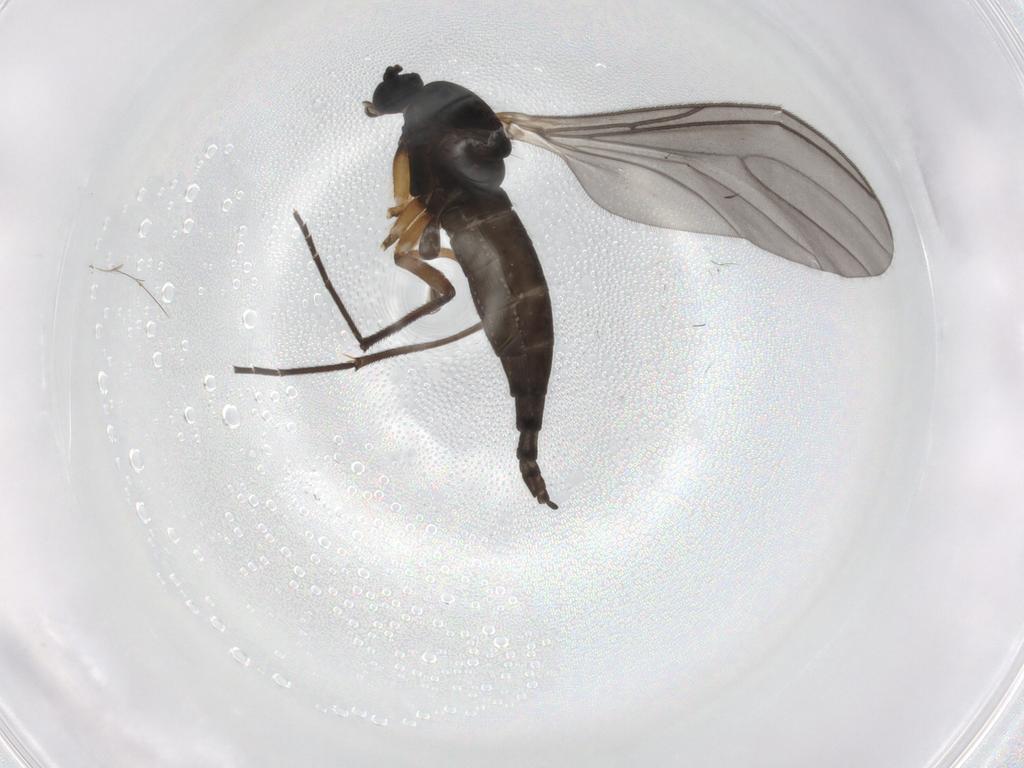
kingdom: Animalia
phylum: Arthropoda
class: Insecta
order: Diptera
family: Sciaridae
